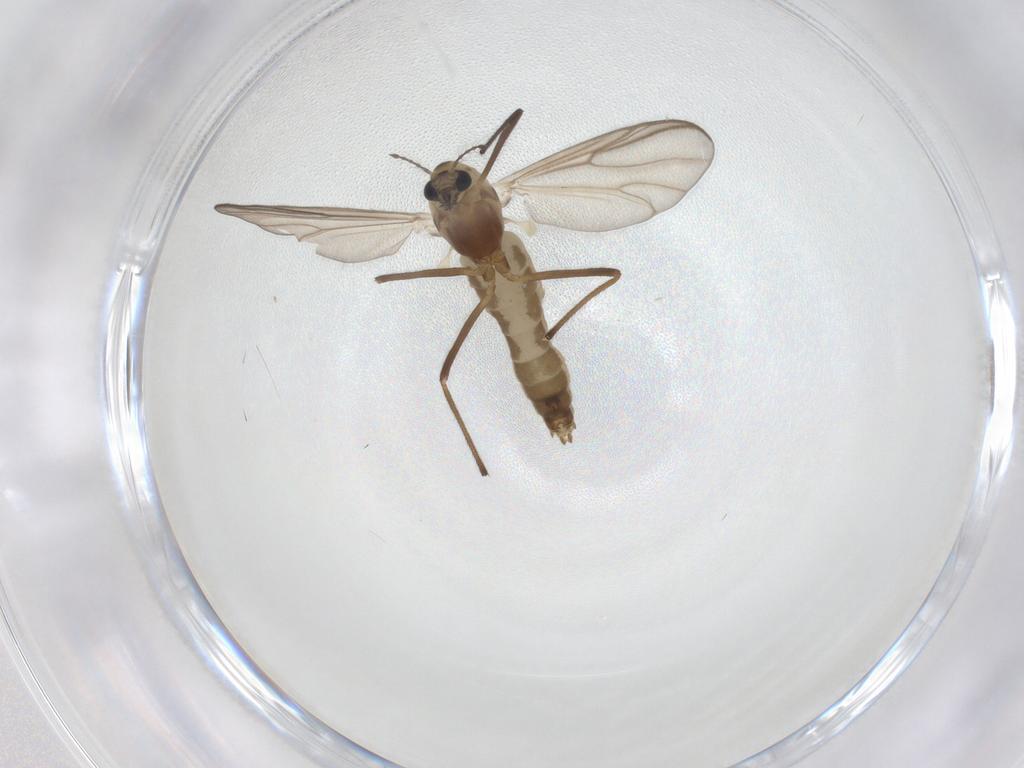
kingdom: Animalia
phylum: Arthropoda
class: Insecta
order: Diptera
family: Chironomidae
